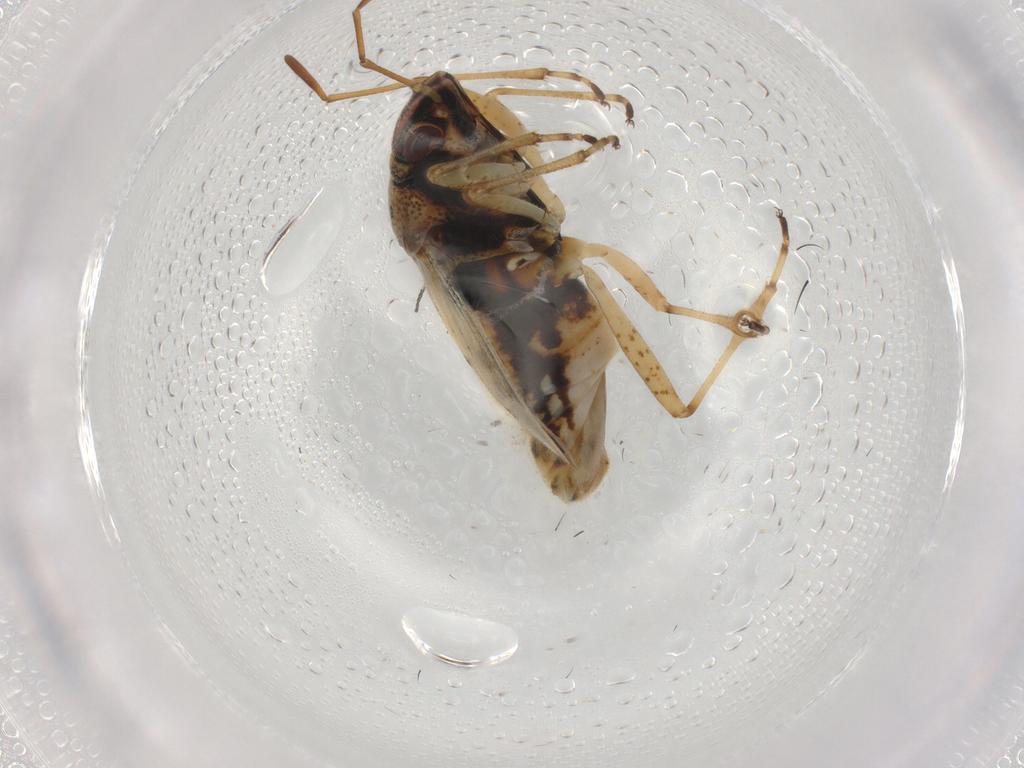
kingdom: Animalia
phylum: Arthropoda
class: Insecta
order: Hemiptera
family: Lygaeidae
